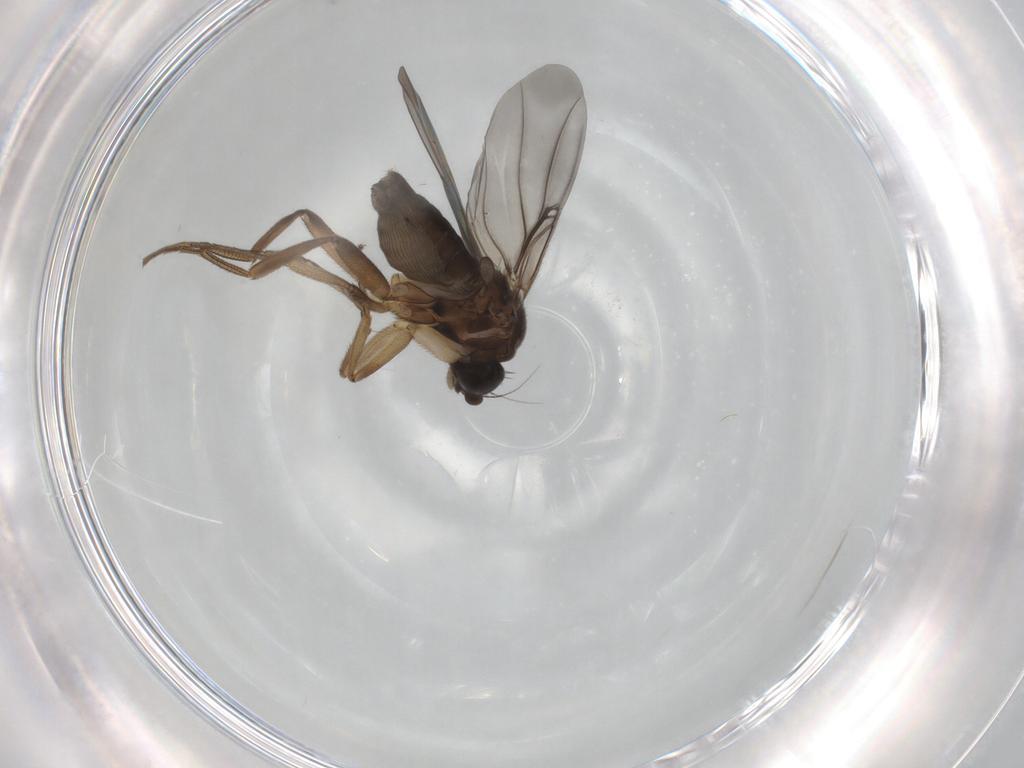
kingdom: Animalia
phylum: Arthropoda
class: Insecta
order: Diptera
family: Phoridae
